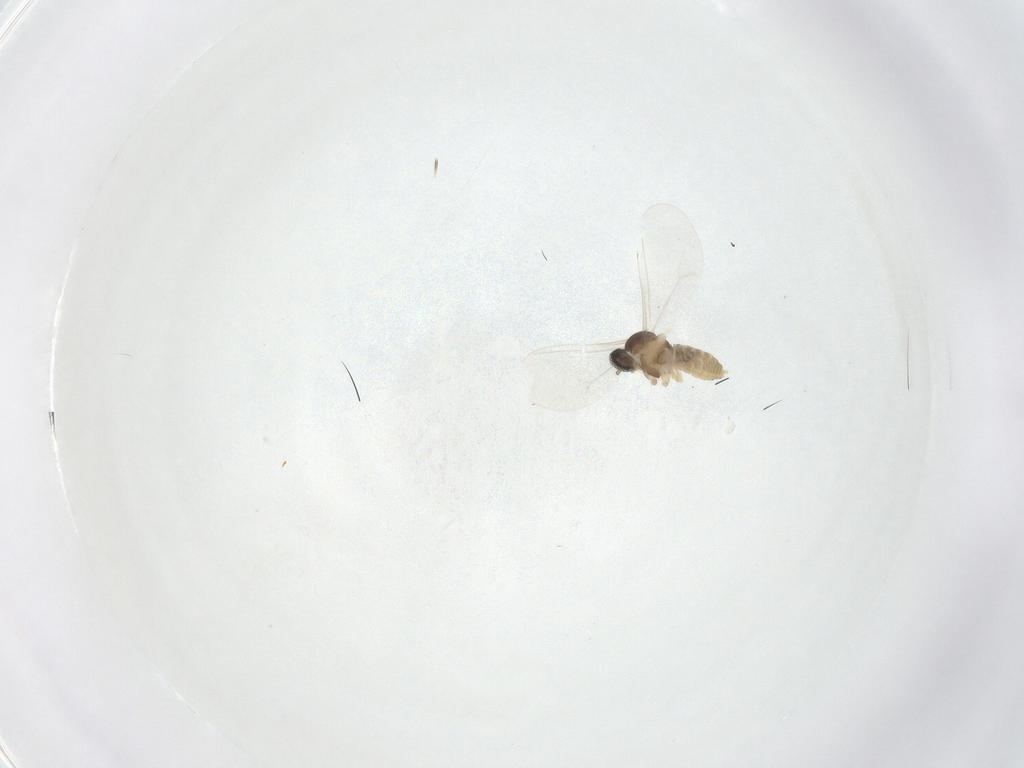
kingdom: Animalia
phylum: Arthropoda
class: Insecta
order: Diptera
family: Cecidomyiidae
